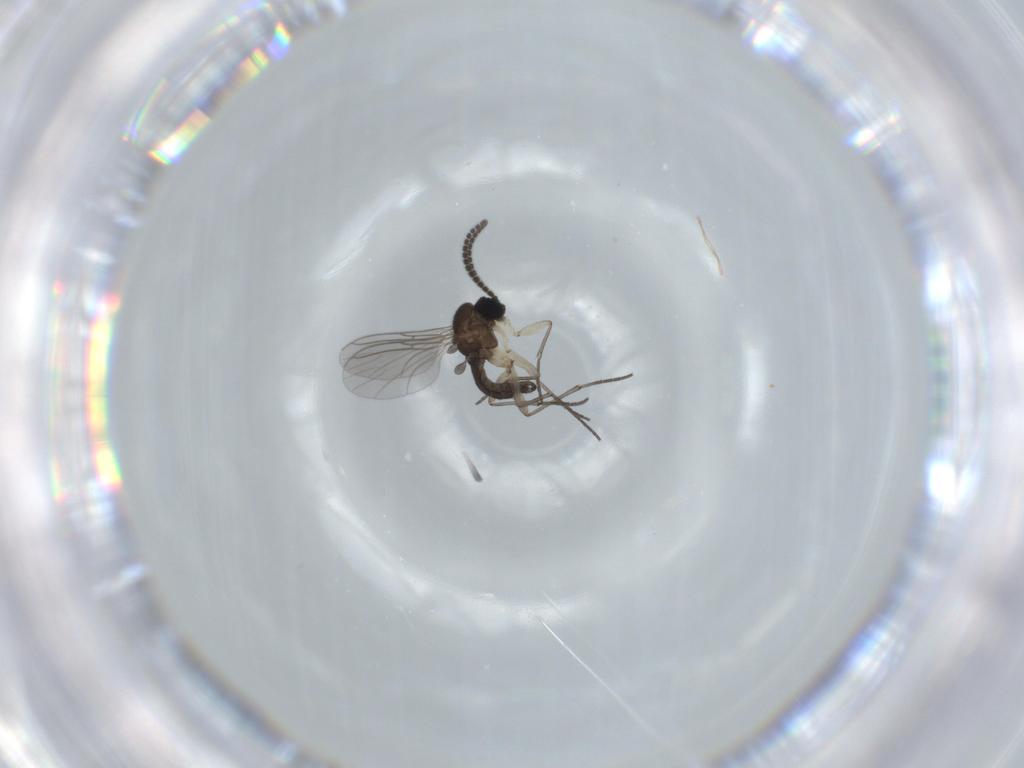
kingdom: Animalia
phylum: Arthropoda
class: Insecta
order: Diptera
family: Sciaridae
